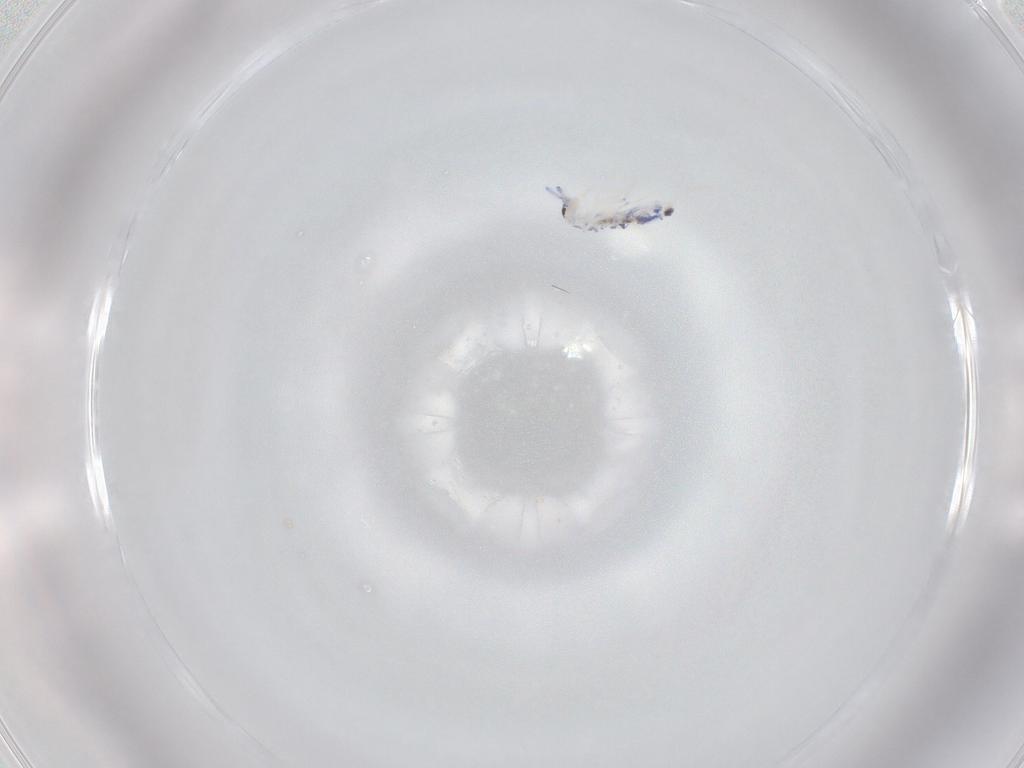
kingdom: Animalia
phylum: Arthropoda
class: Collembola
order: Entomobryomorpha
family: Entomobryidae
